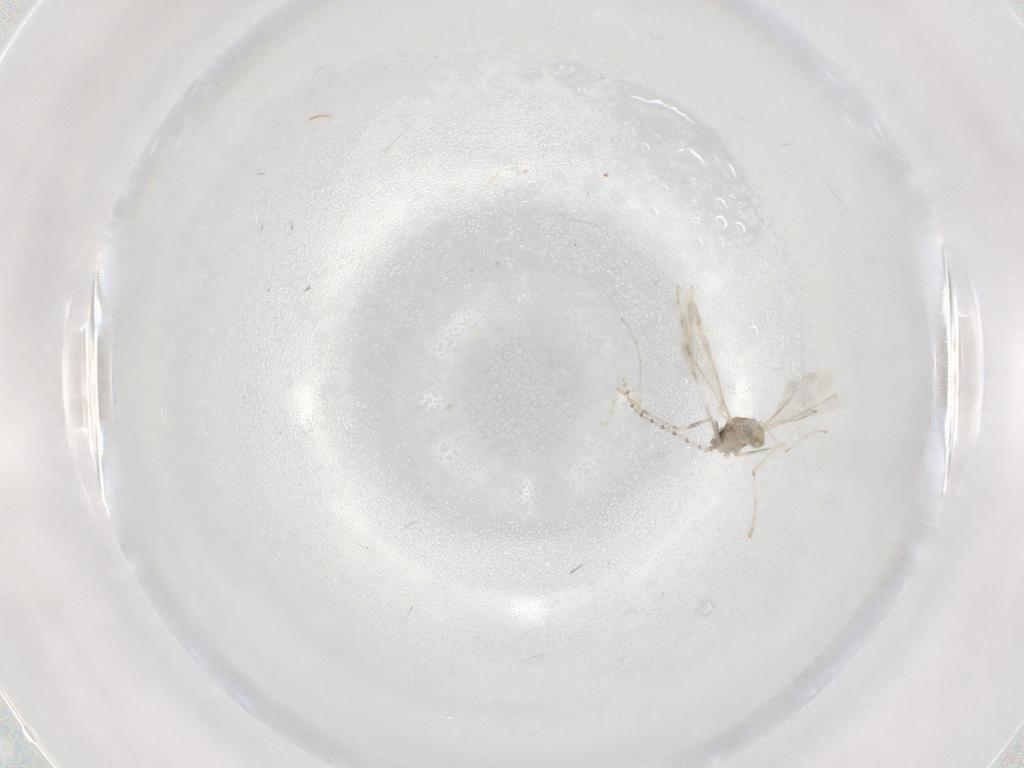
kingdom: Animalia
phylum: Arthropoda
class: Insecta
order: Diptera
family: Cecidomyiidae
